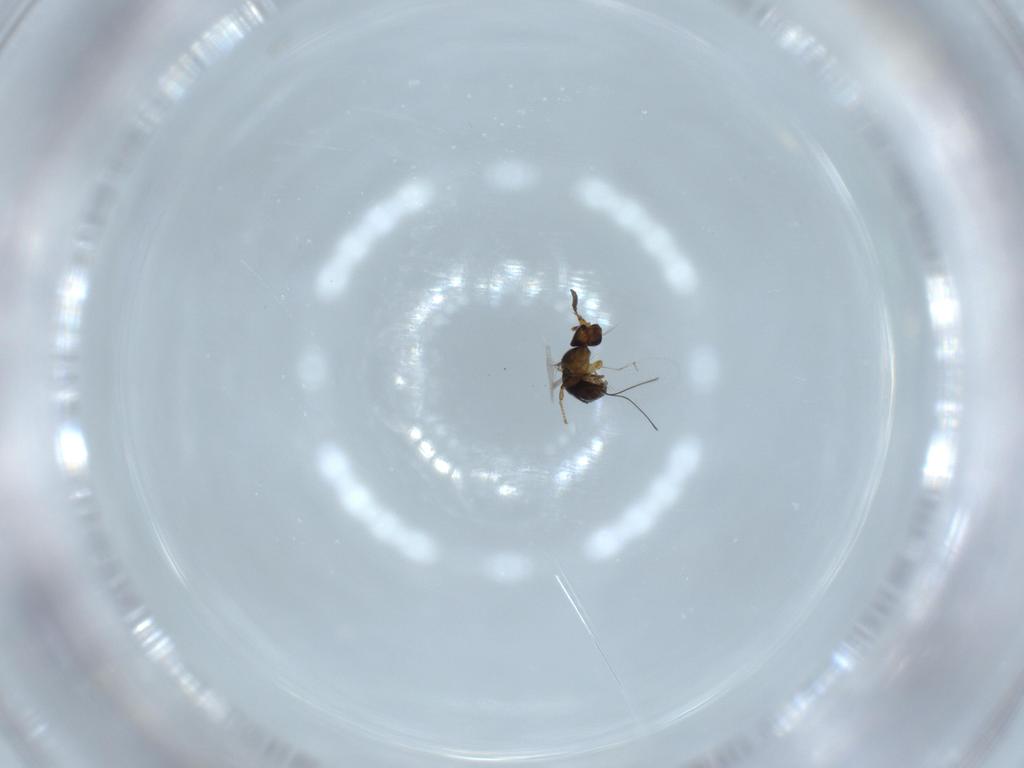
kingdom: Animalia
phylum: Arthropoda
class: Insecta
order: Hymenoptera
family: Agaonidae
